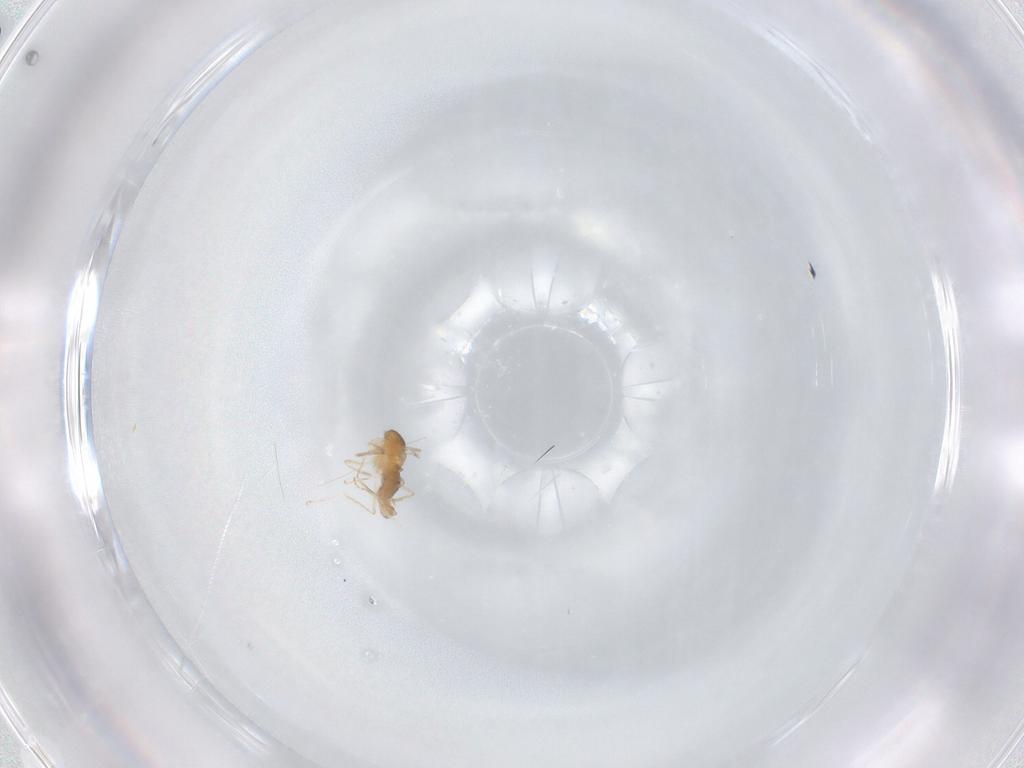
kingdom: Animalia
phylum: Arthropoda
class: Insecta
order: Diptera
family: Cecidomyiidae
